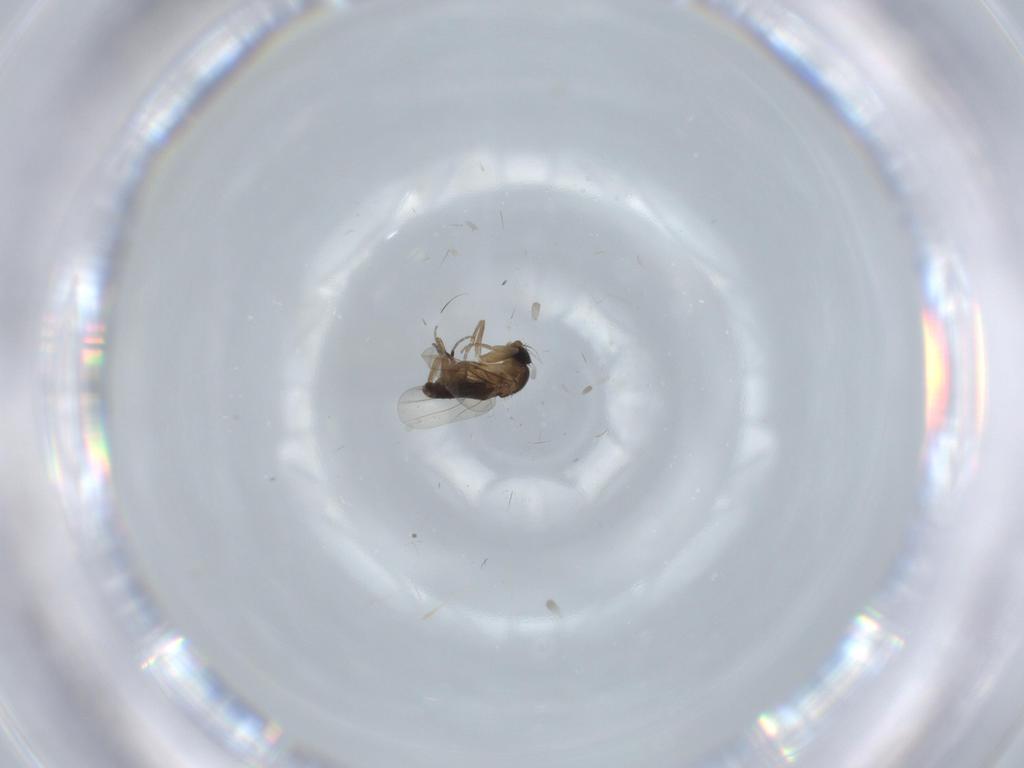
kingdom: Animalia
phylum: Arthropoda
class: Insecta
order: Diptera
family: Phoridae
